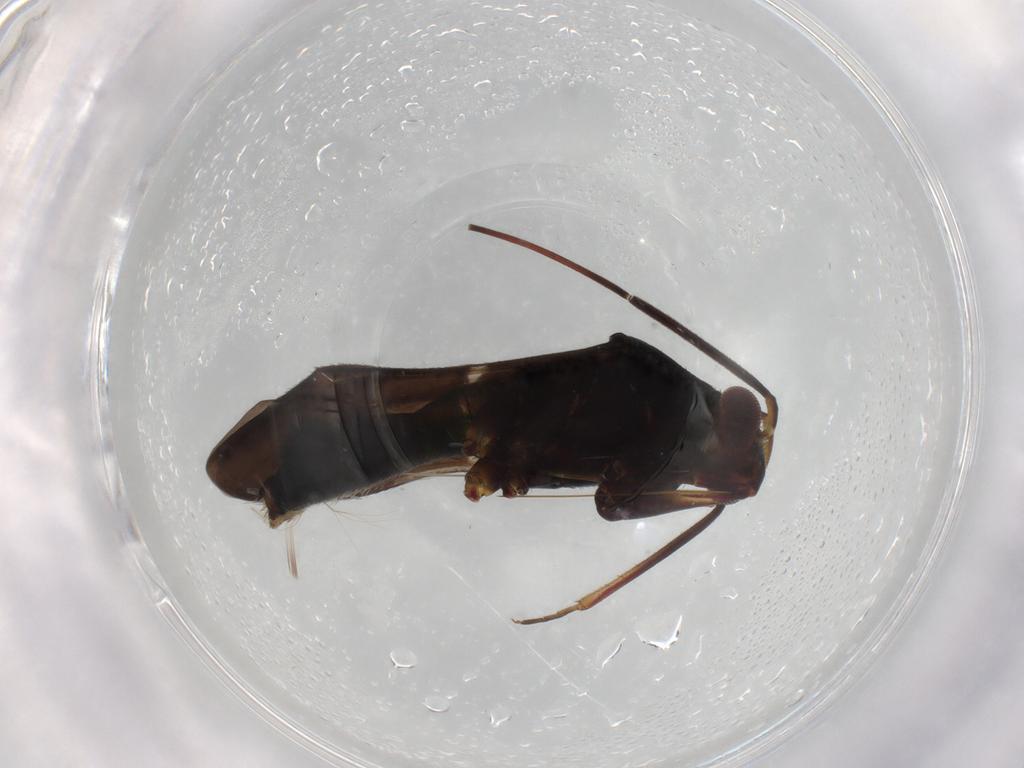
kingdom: Animalia
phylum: Arthropoda
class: Insecta
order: Hemiptera
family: Miridae
